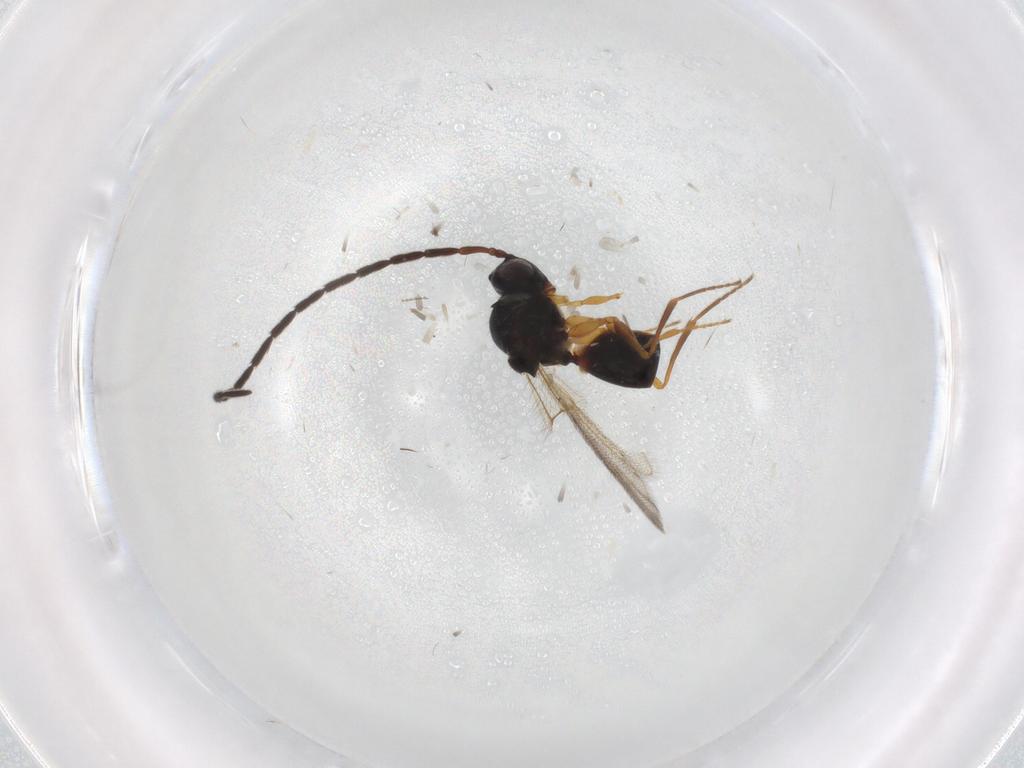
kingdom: Animalia
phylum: Arthropoda
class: Insecta
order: Hymenoptera
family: Figitidae
